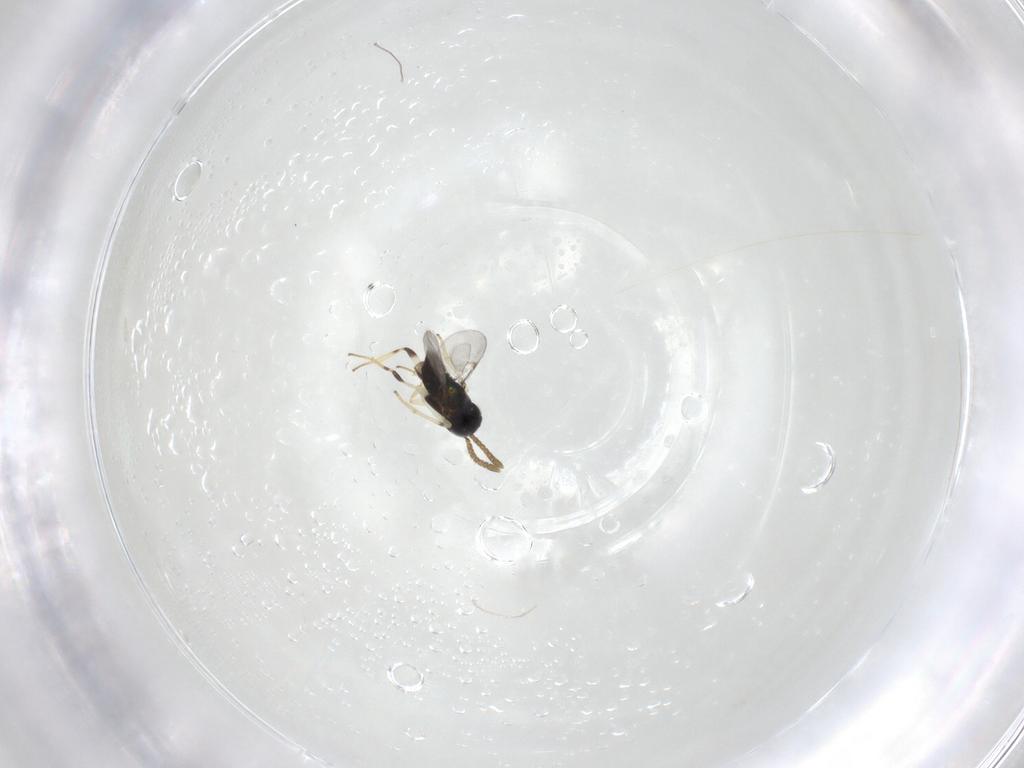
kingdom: Animalia
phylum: Arthropoda
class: Insecta
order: Hymenoptera
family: Encyrtidae
